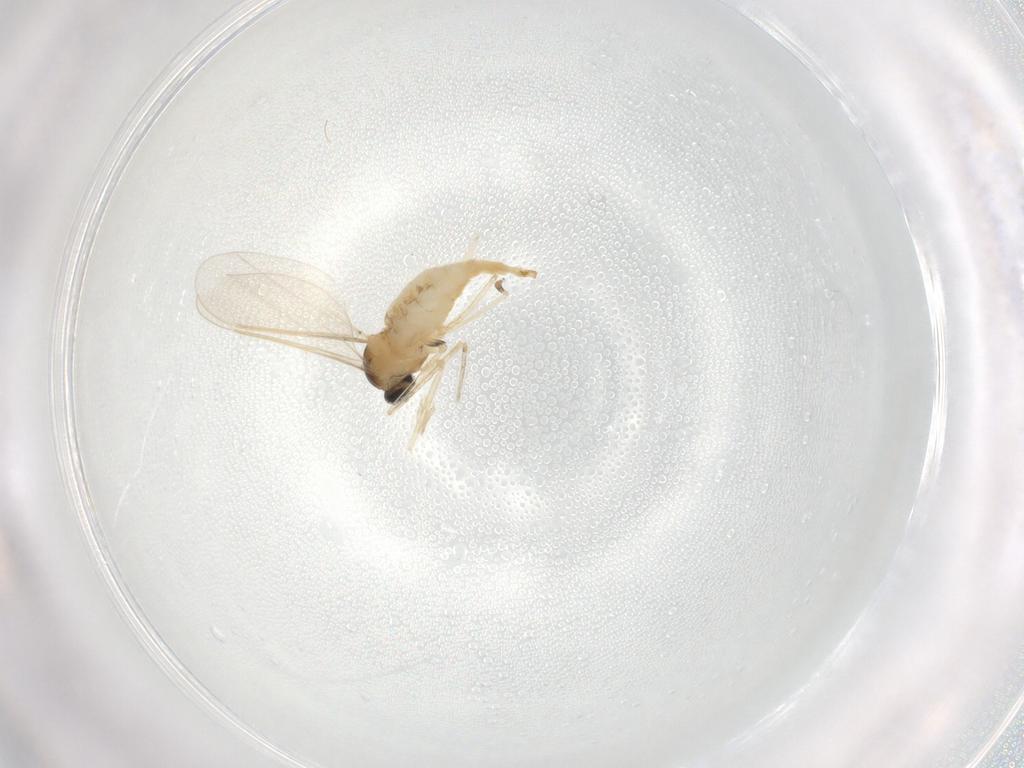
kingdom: Animalia
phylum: Arthropoda
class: Insecta
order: Diptera
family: Cecidomyiidae
